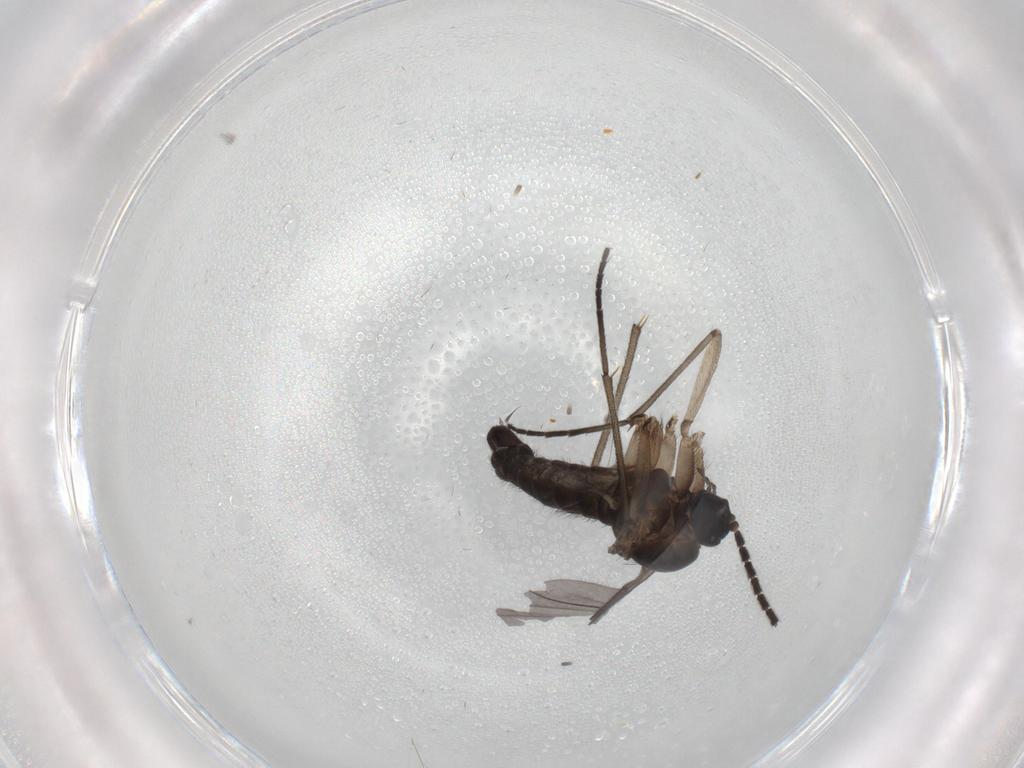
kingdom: Animalia
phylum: Arthropoda
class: Insecta
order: Diptera
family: Sciaridae
